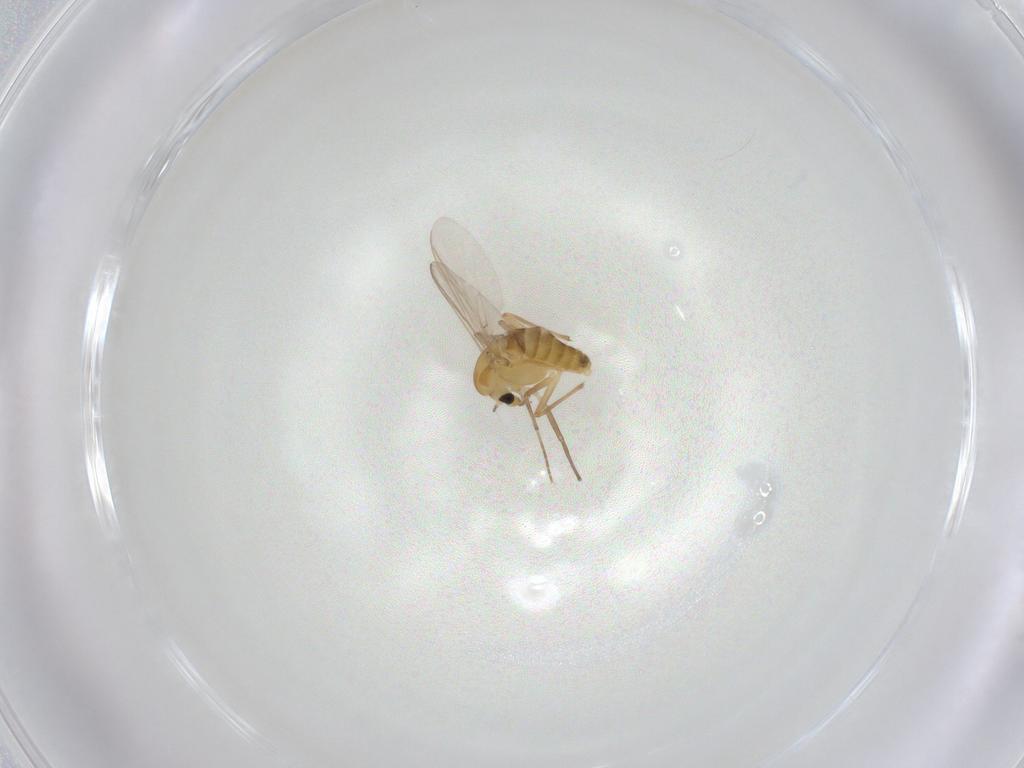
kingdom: Animalia
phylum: Arthropoda
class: Insecta
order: Diptera
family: Chironomidae
